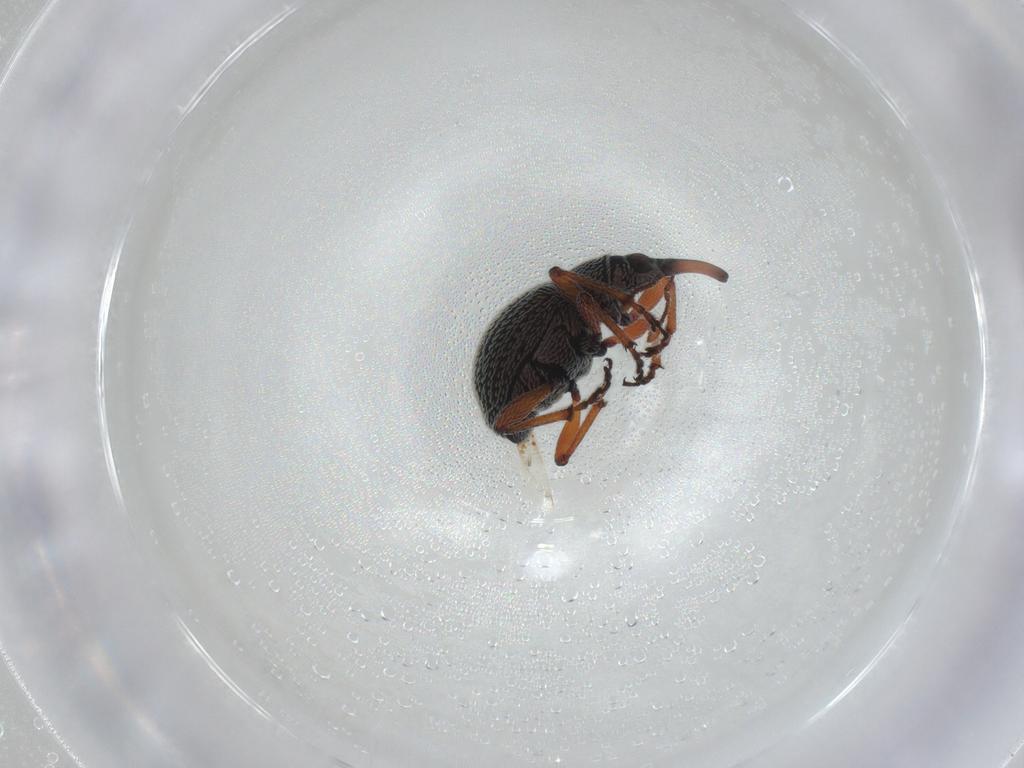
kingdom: Animalia
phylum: Arthropoda
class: Insecta
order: Coleoptera
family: Brentidae
